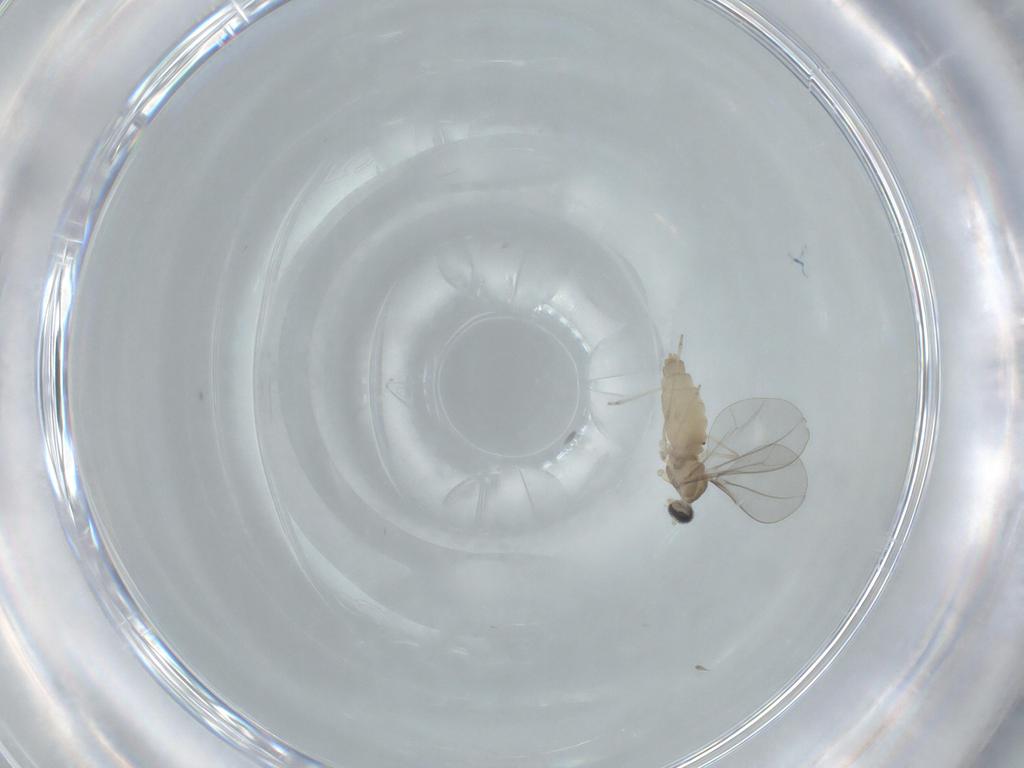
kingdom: Animalia
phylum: Arthropoda
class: Insecta
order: Diptera
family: Cecidomyiidae
